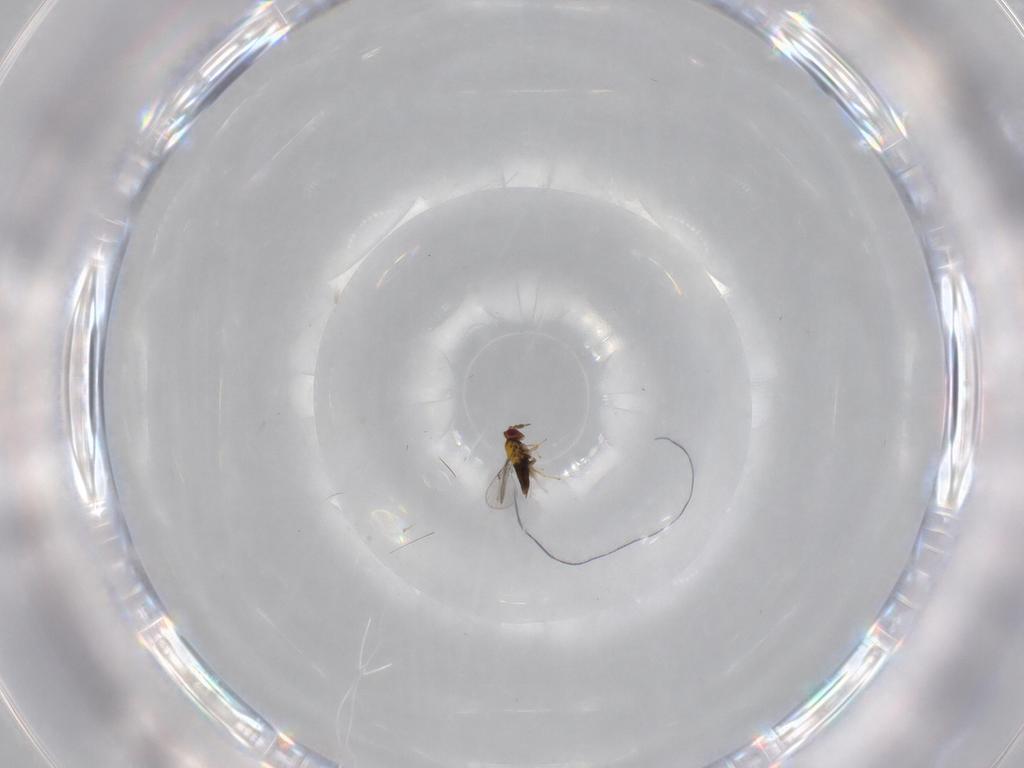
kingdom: Animalia
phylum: Arthropoda
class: Insecta
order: Hymenoptera
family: Trichogrammatidae
